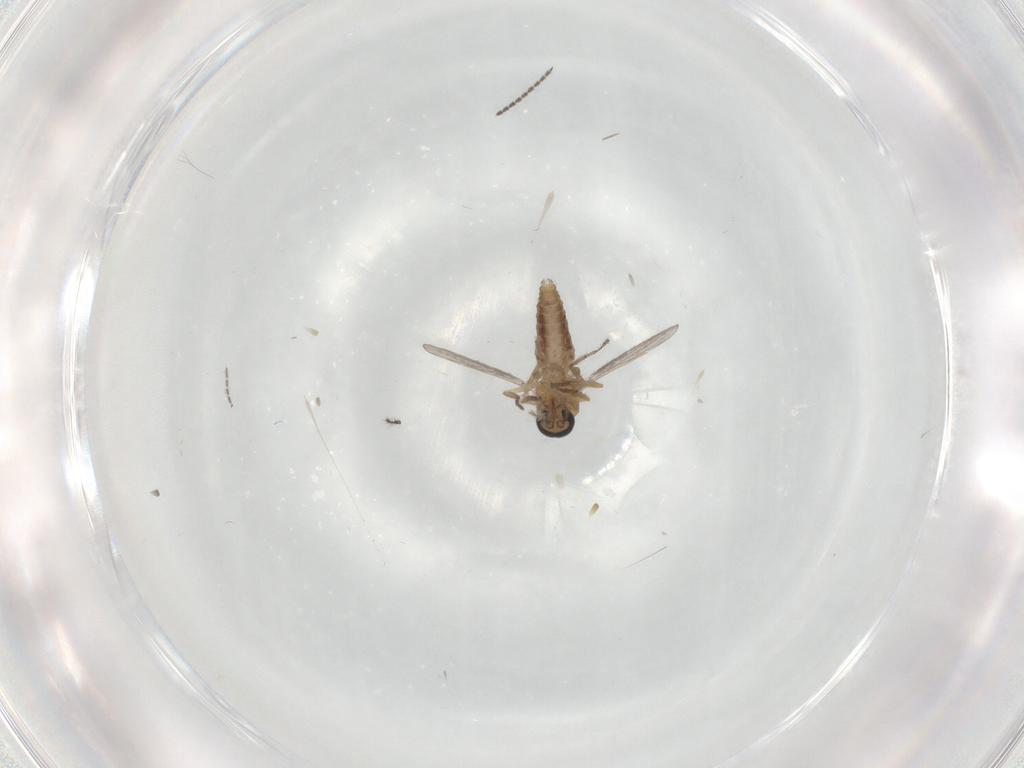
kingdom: Animalia
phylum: Arthropoda
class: Insecta
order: Diptera
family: Ceratopogonidae
